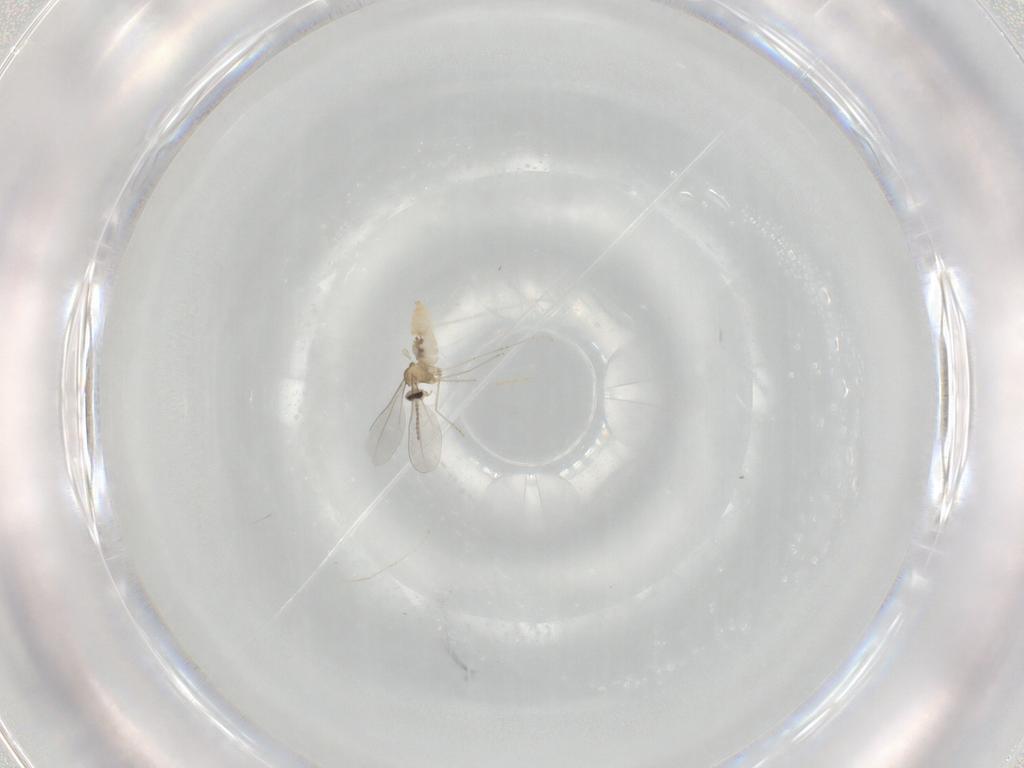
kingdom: Animalia
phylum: Arthropoda
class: Insecta
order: Diptera
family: Cecidomyiidae
